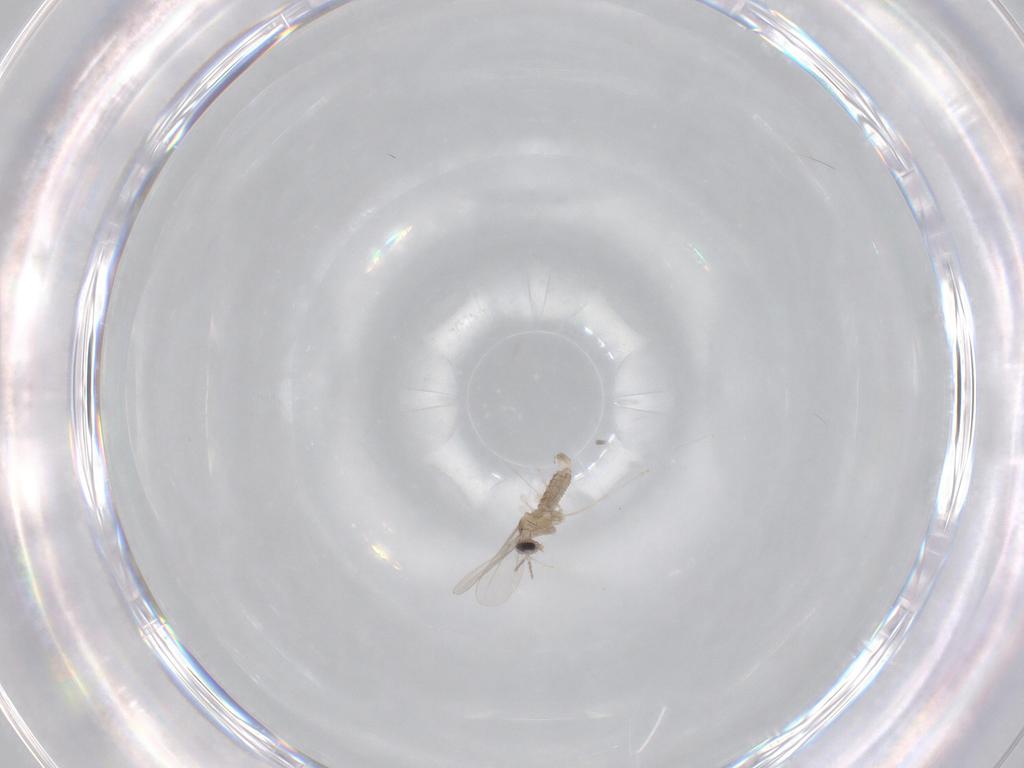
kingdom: Animalia
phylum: Arthropoda
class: Insecta
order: Diptera
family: Cecidomyiidae
